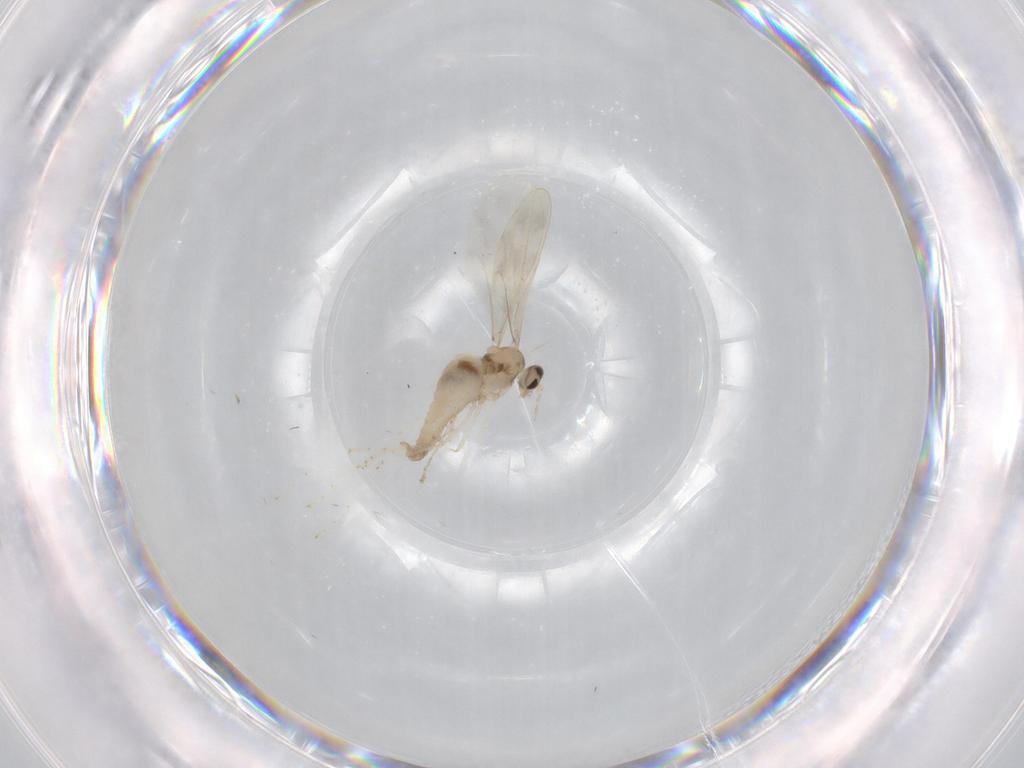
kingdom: Animalia
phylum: Arthropoda
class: Insecta
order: Diptera
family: Cecidomyiidae
